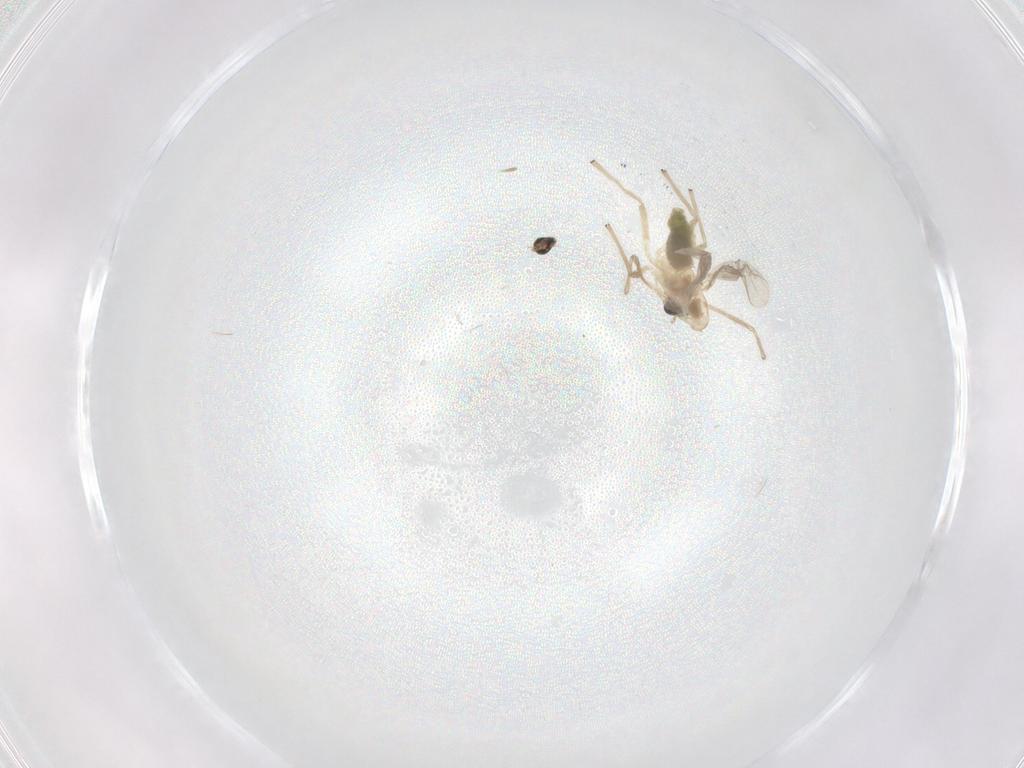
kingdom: Animalia
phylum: Arthropoda
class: Insecta
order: Diptera
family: Chironomidae
